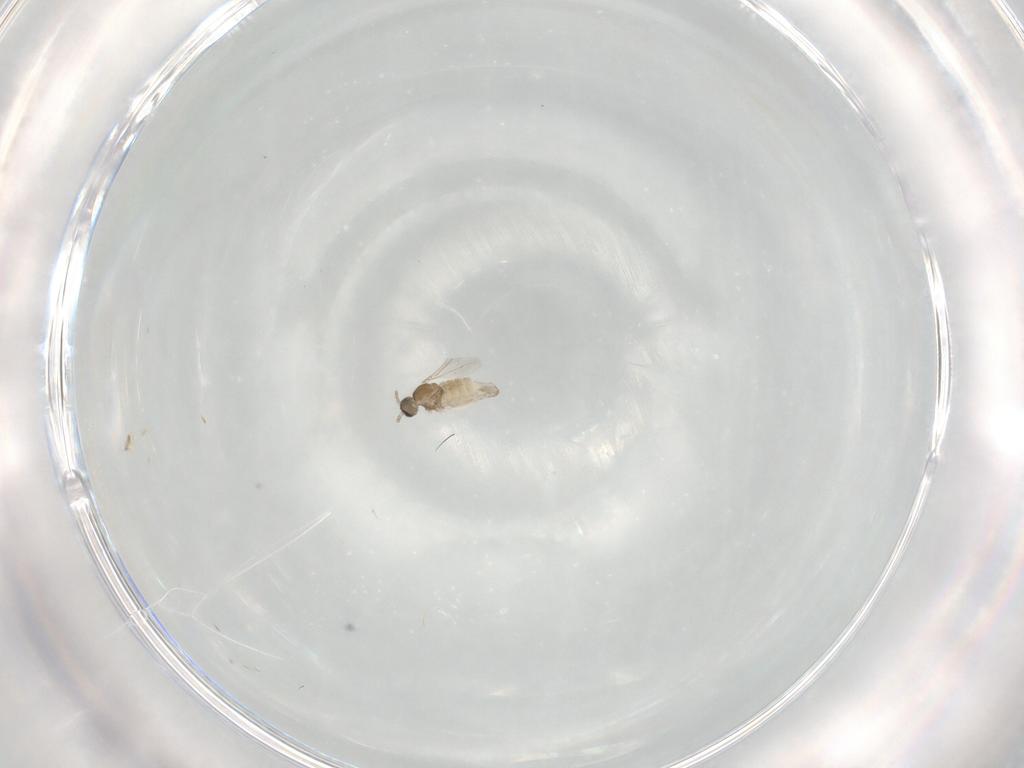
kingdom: Animalia
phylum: Arthropoda
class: Insecta
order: Diptera
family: Cecidomyiidae
